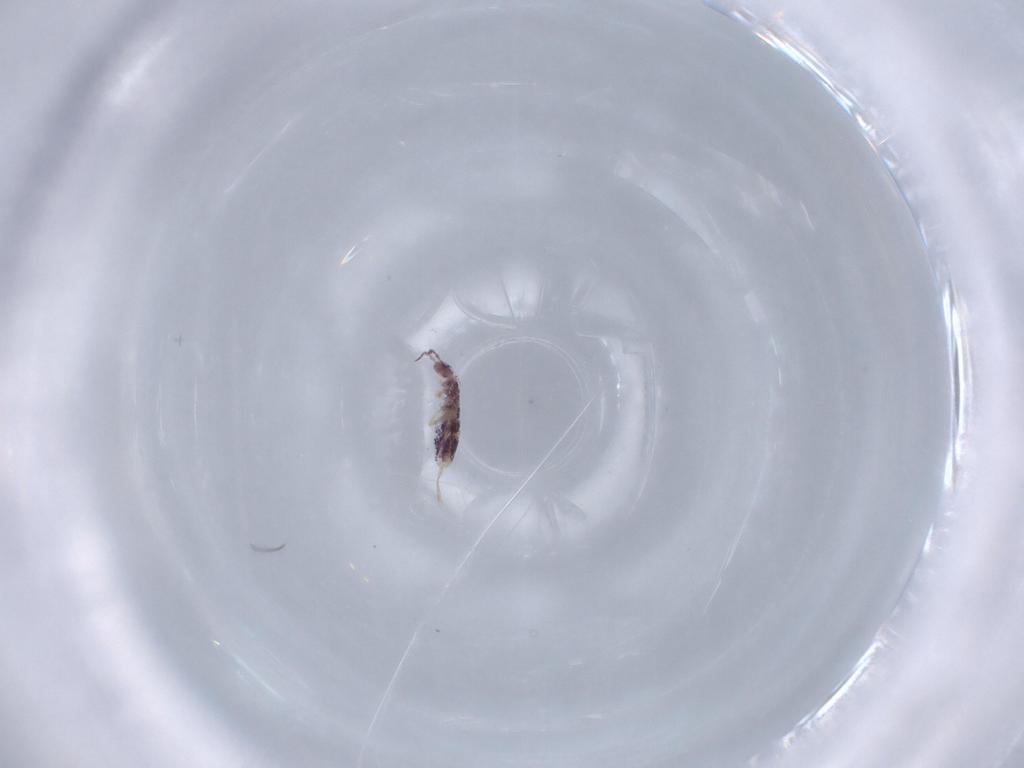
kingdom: Animalia
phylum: Arthropoda
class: Collembola
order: Entomobryomorpha
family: Entomobryidae
